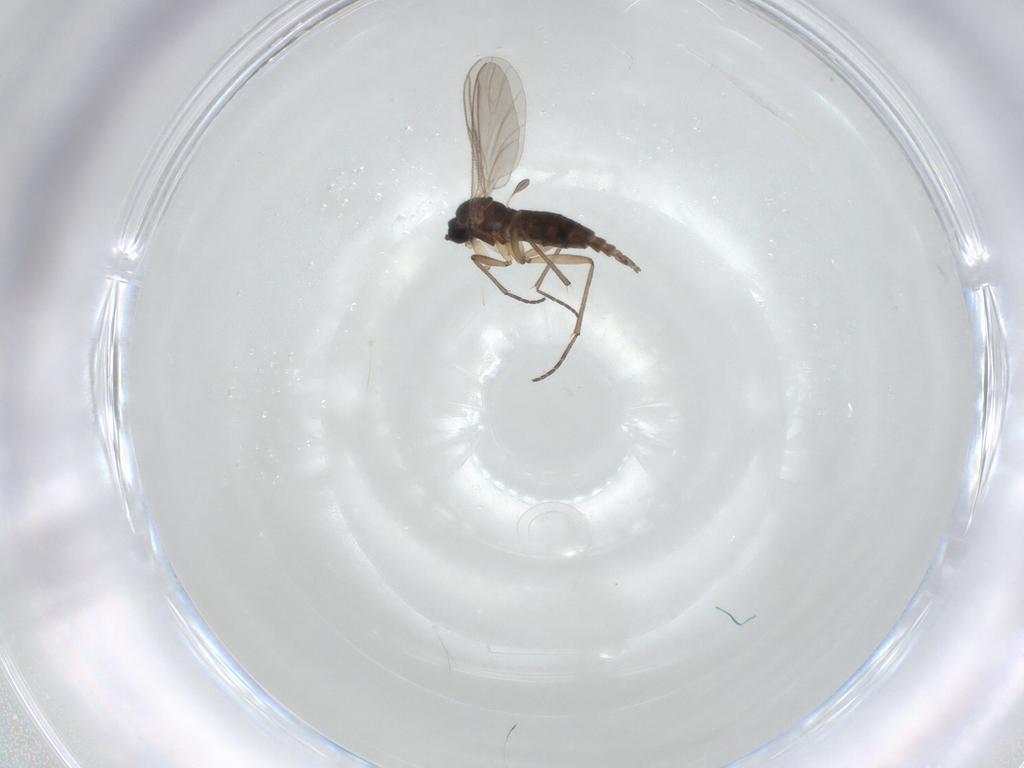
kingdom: Animalia
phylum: Arthropoda
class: Insecta
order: Diptera
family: Sciaridae
